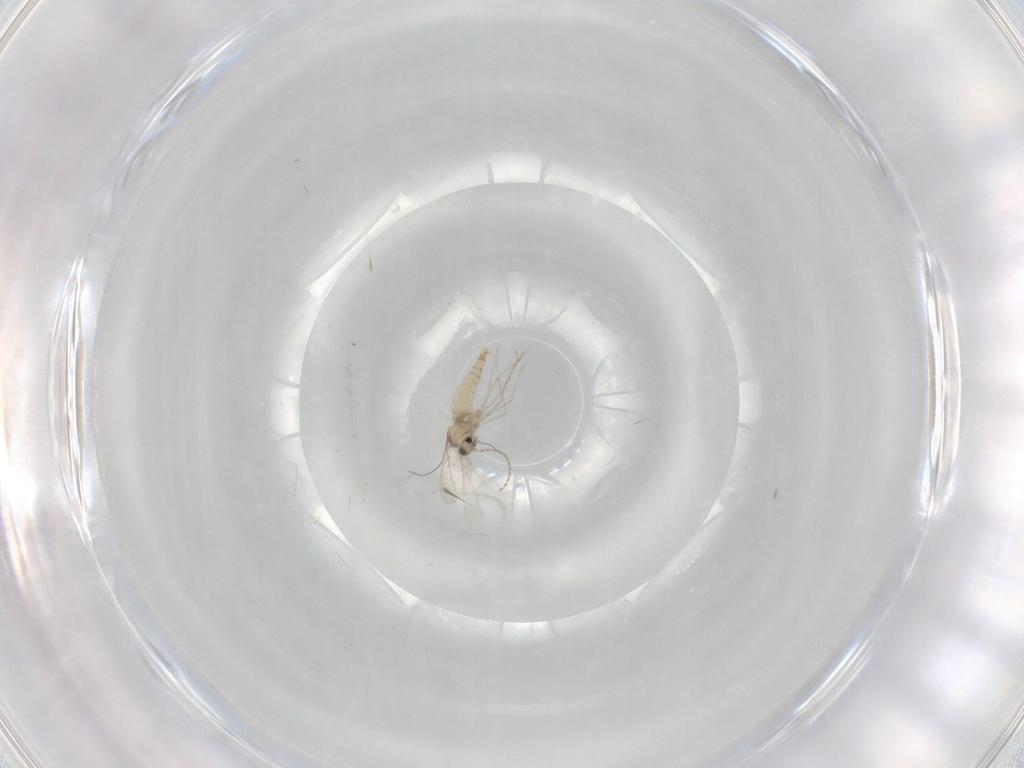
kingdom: Animalia
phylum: Arthropoda
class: Insecta
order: Diptera
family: Cecidomyiidae
